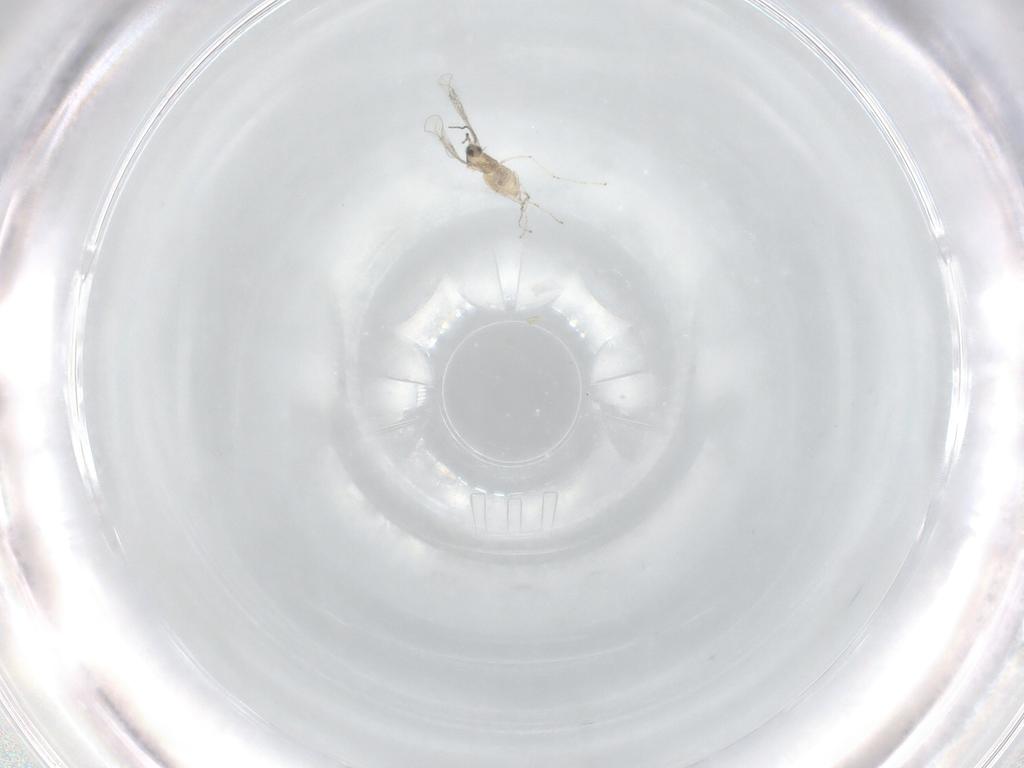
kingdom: Animalia
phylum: Arthropoda
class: Insecta
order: Diptera
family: Cecidomyiidae
